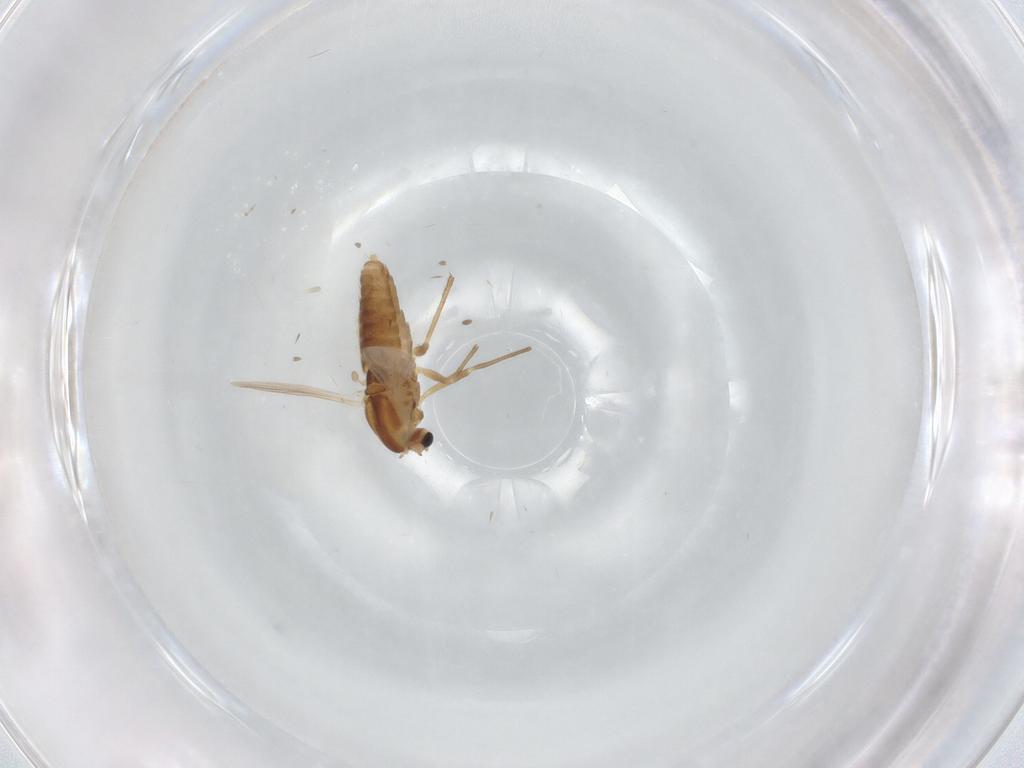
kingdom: Animalia
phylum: Arthropoda
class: Insecta
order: Diptera
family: Chironomidae
